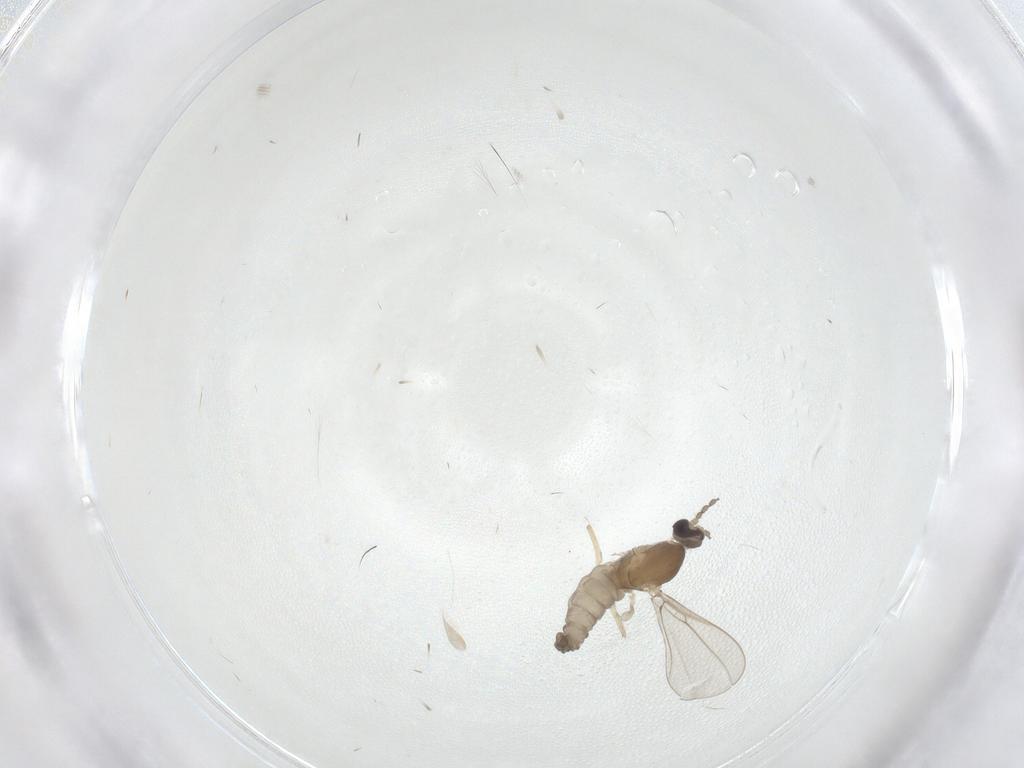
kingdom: Animalia
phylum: Arthropoda
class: Insecta
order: Diptera
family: Cecidomyiidae
